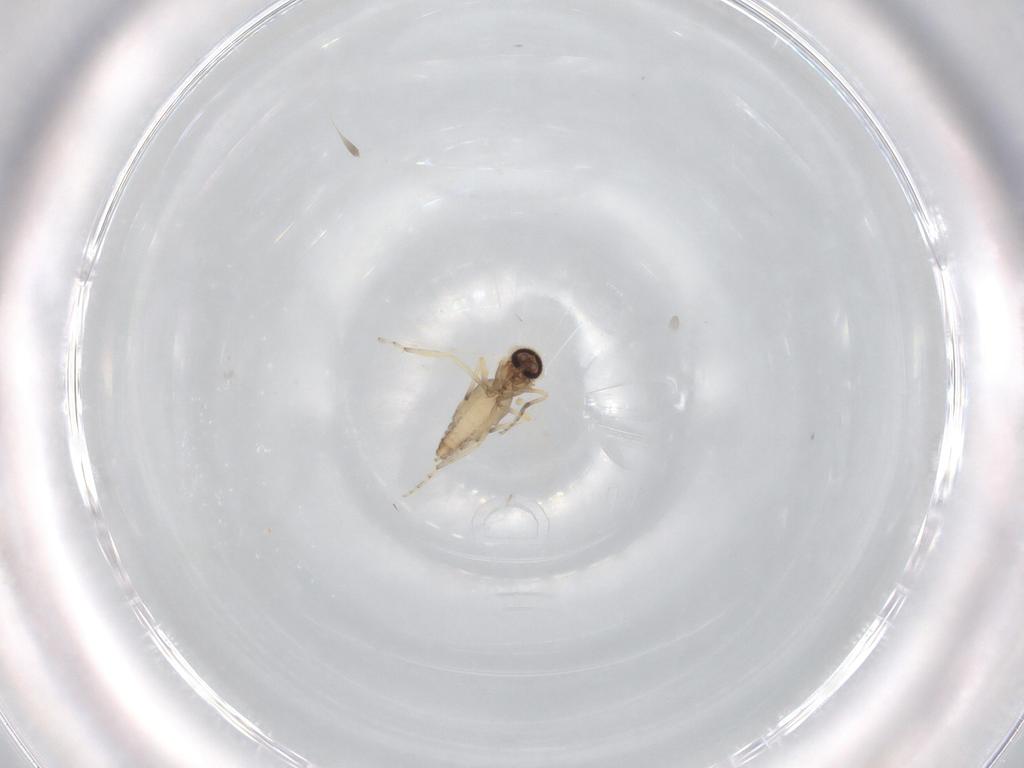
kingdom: Animalia
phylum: Arthropoda
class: Insecta
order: Diptera
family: Ceratopogonidae
